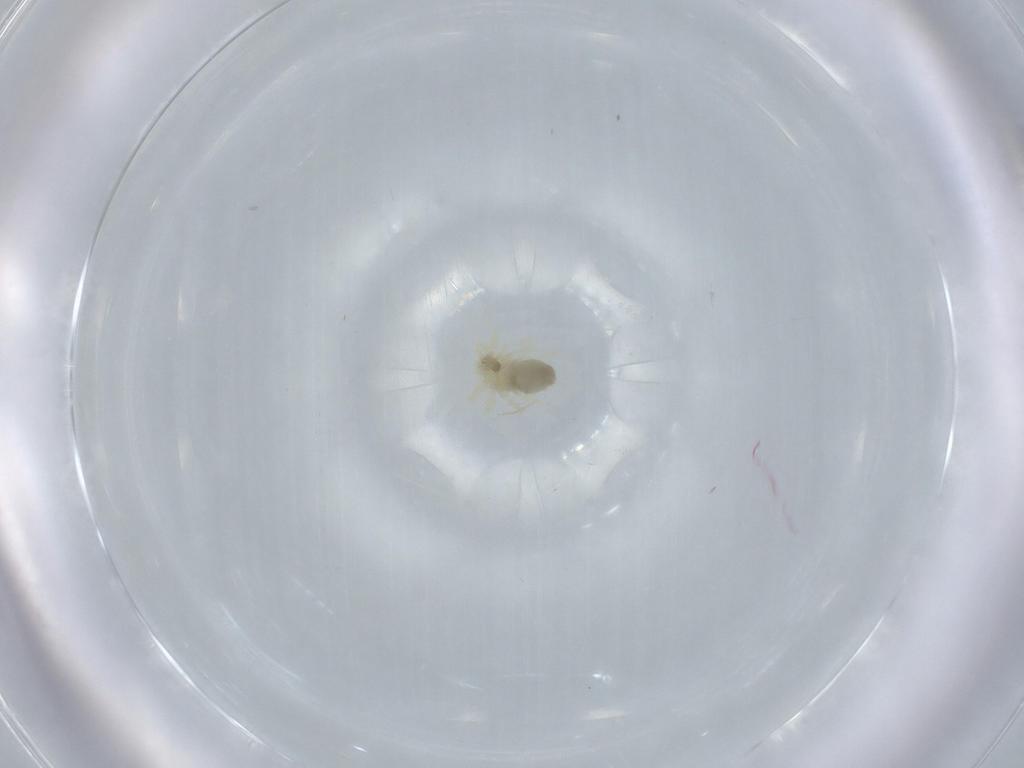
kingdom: Animalia
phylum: Arthropoda
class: Arachnida
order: Trombidiformes
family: Anystidae
